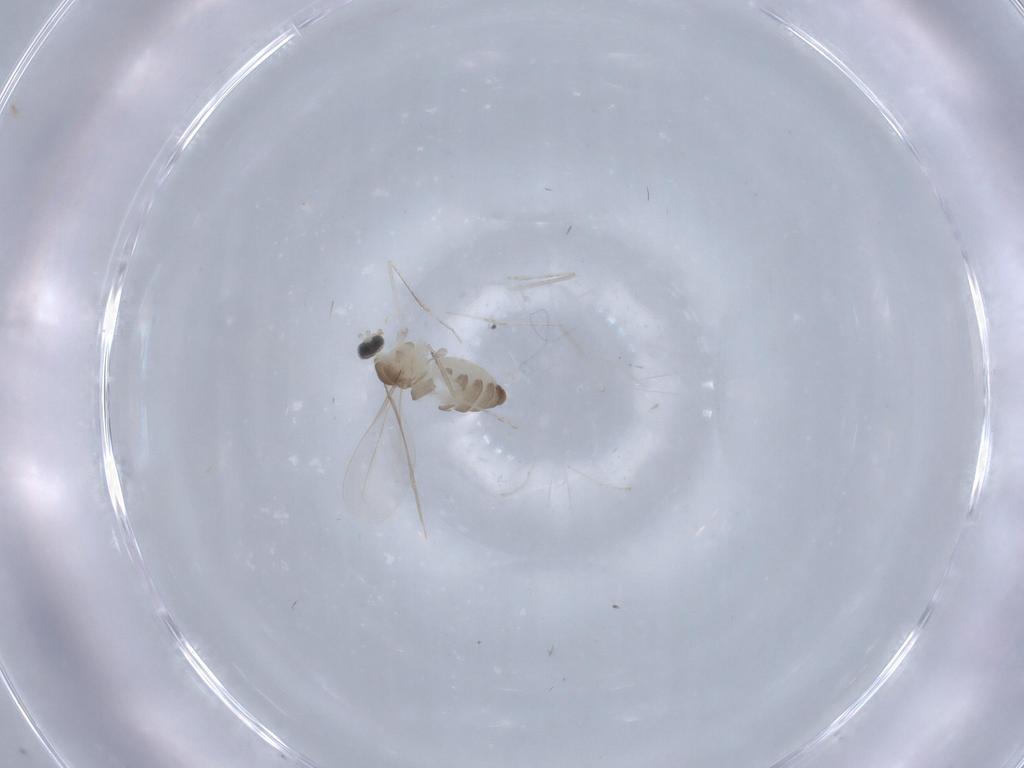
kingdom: Animalia
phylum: Arthropoda
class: Insecta
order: Diptera
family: Cecidomyiidae
